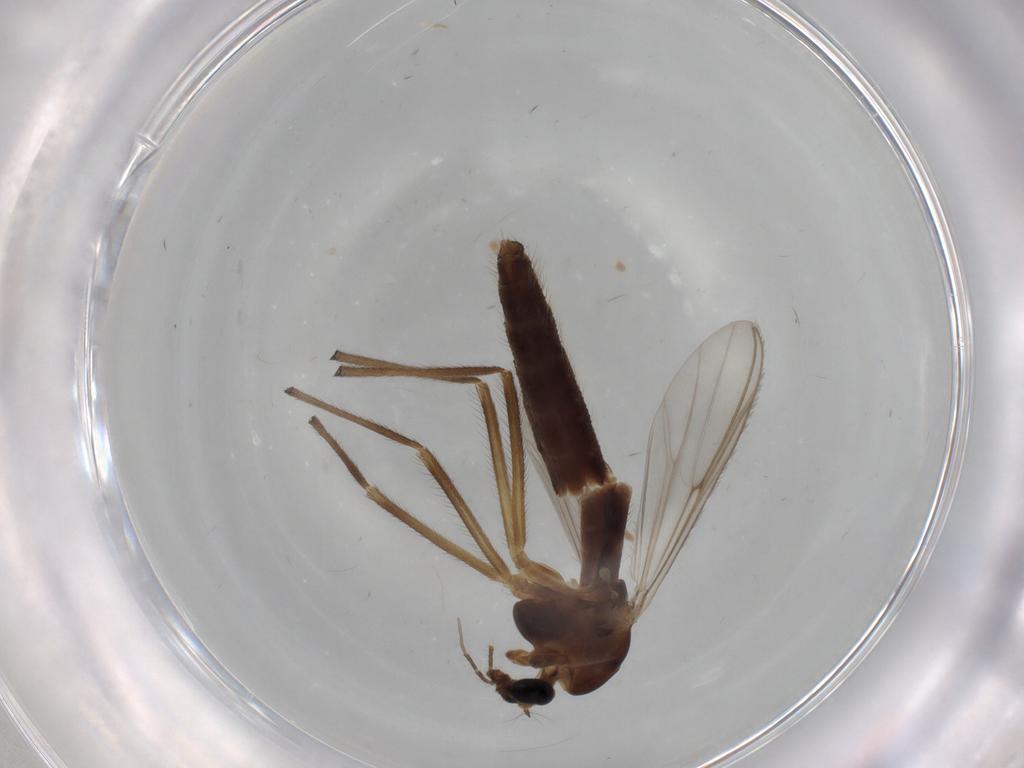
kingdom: Animalia
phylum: Arthropoda
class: Insecta
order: Diptera
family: Chironomidae
